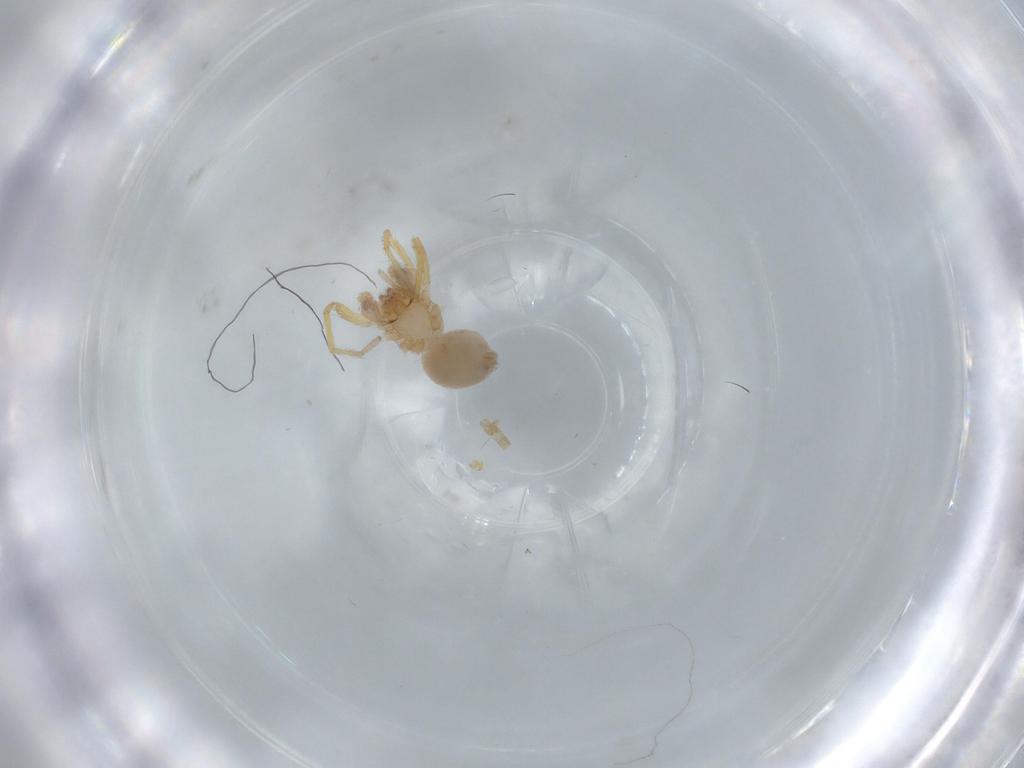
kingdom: Animalia
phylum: Arthropoda
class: Arachnida
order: Araneae
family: Oonopidae
